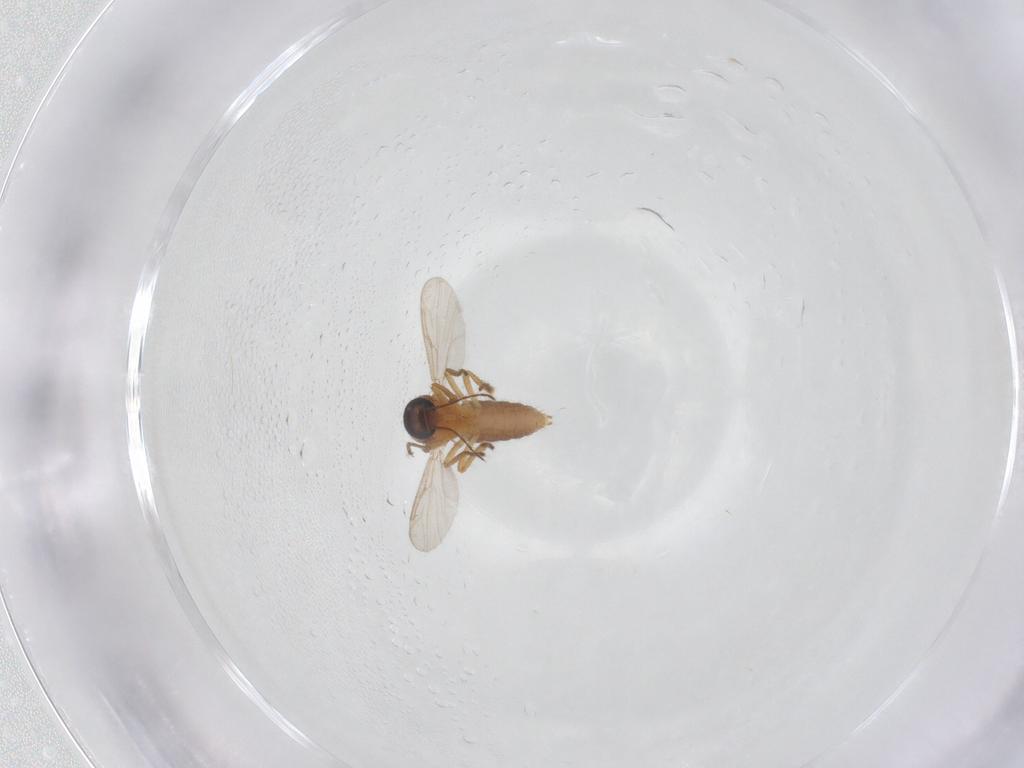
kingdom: Animalia
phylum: Arthropoda
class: Insecta
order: Diptera
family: Ceratopogonidae
